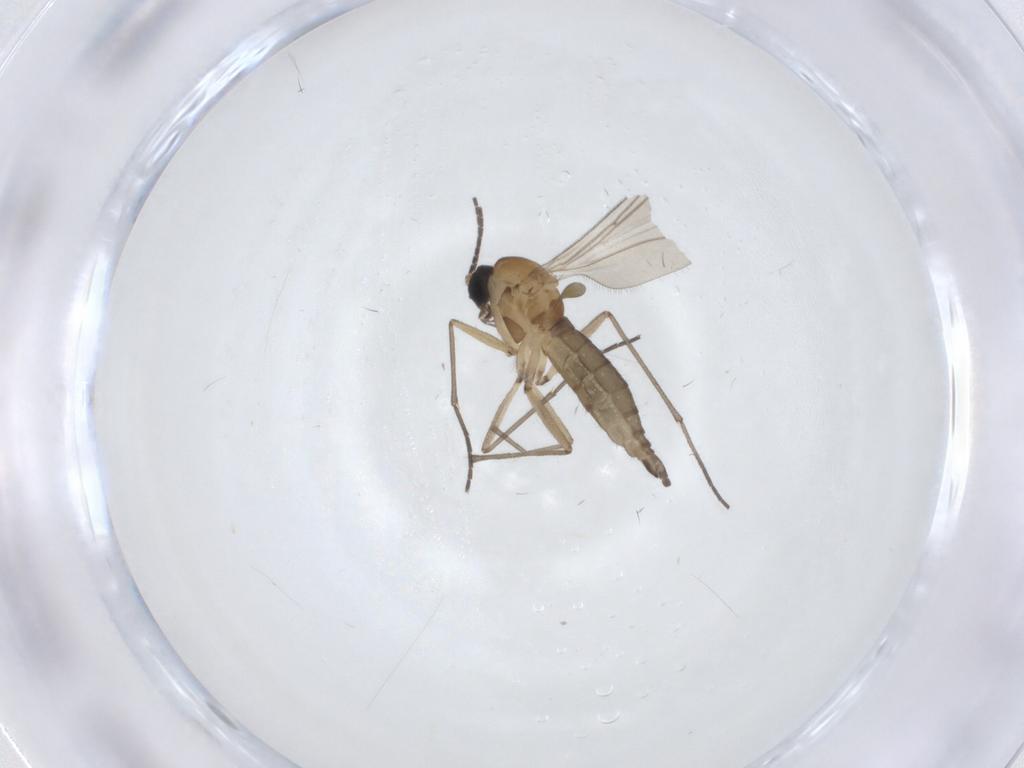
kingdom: Animalia
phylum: Arthropoda
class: Insecta
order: Diptera
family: Sciaridae
